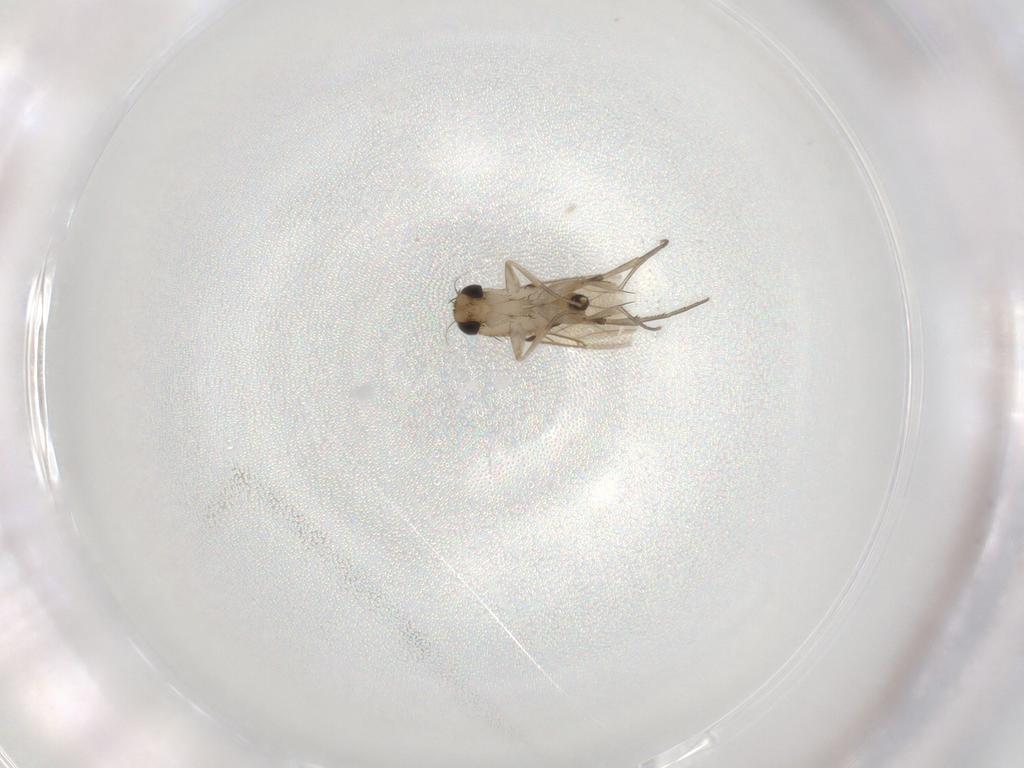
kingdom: Animalia
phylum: Arthropoda
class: Insecta
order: Diptera
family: Phoridae
